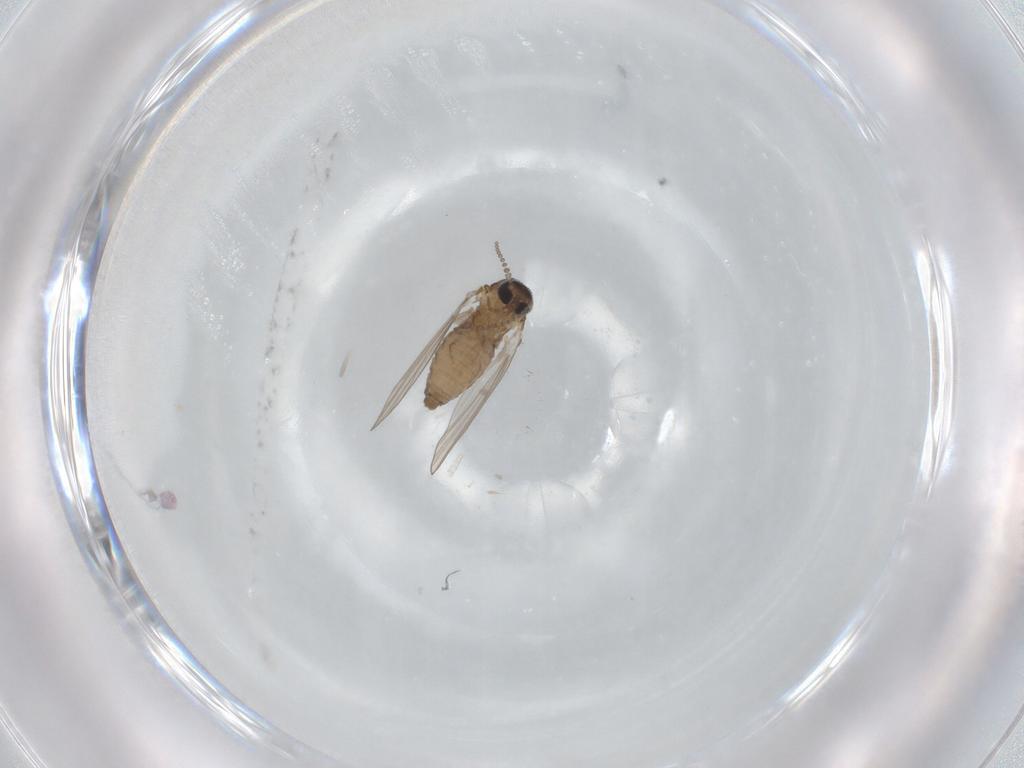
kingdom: Animalia
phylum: Arthropoda
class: Insecta
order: Diptera
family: Psychodidae
